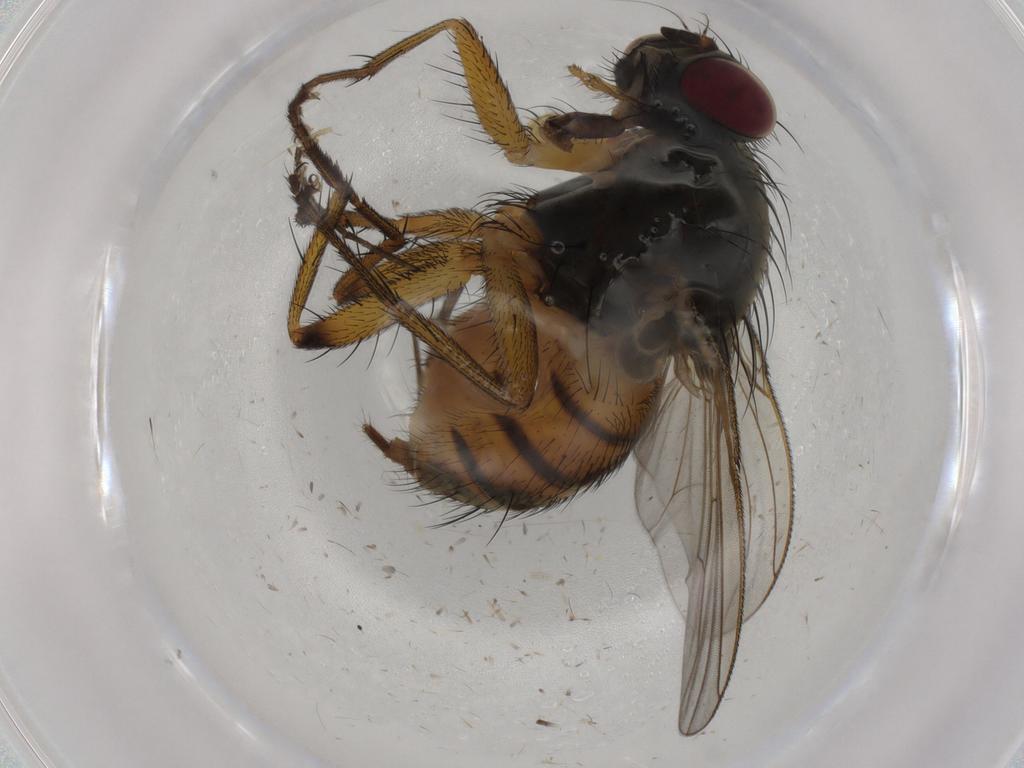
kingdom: Animalia
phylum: Arthropoda
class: Insecta
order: Diptera
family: Muscidae
